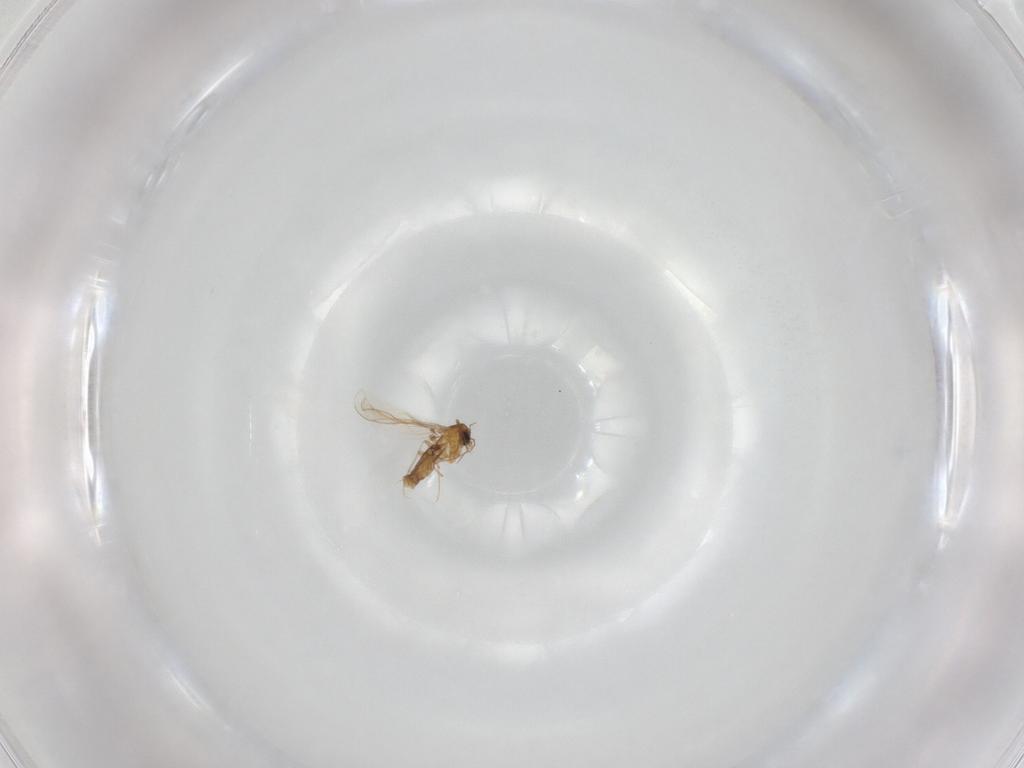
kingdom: Animalia
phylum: Arthropoda
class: Insecta
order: Diptera
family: Chironomidae
